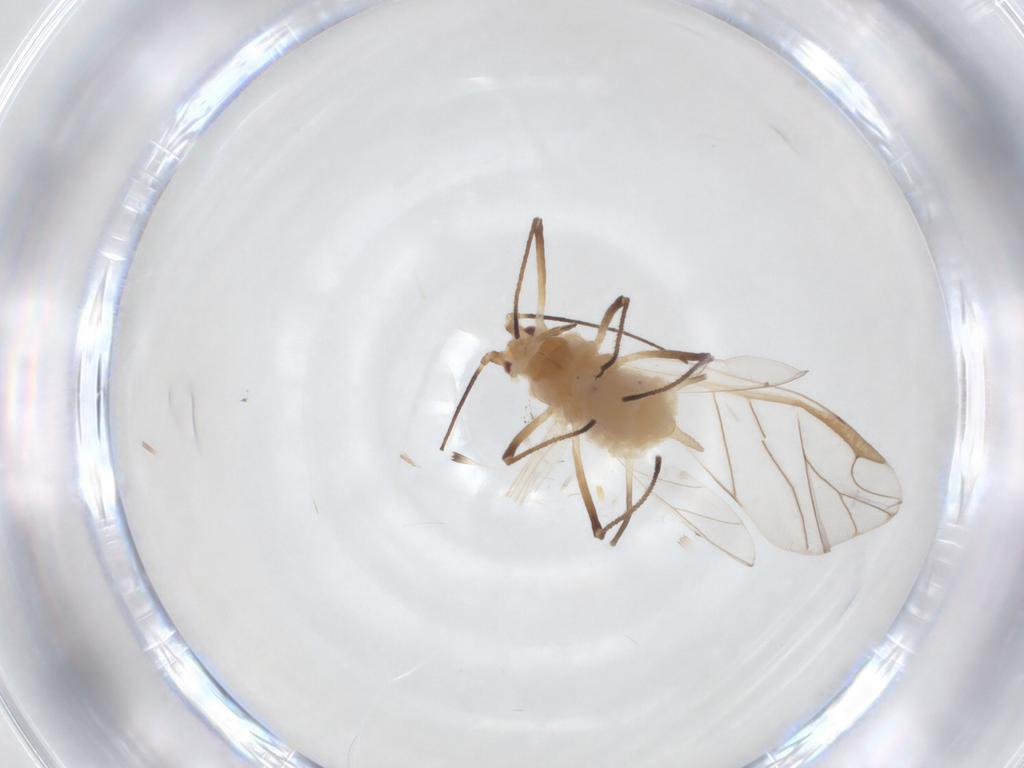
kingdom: Animalia
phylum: Arthropoda
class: Insecta
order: Hemiptera
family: Aphididae
